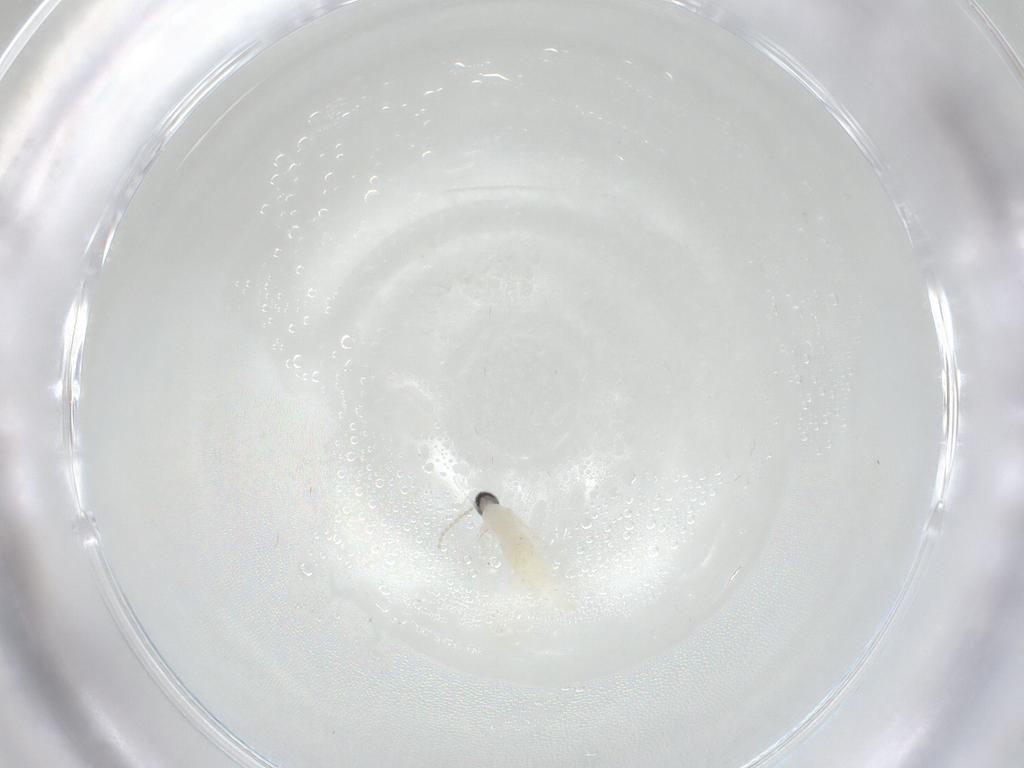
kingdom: Animalia
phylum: Arthropoda
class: Insecta
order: Diptera
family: Cecidomyiidae
